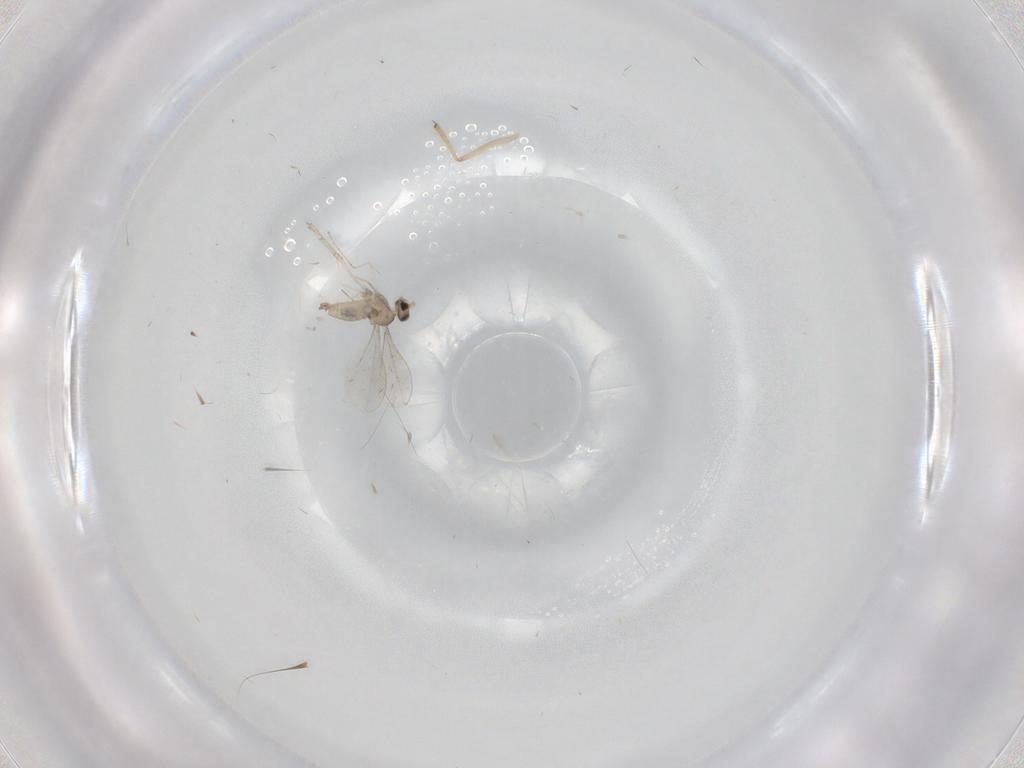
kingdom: Animalia
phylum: Arthropoda
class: Insecta
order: Diptera
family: Cecidomyiidae
